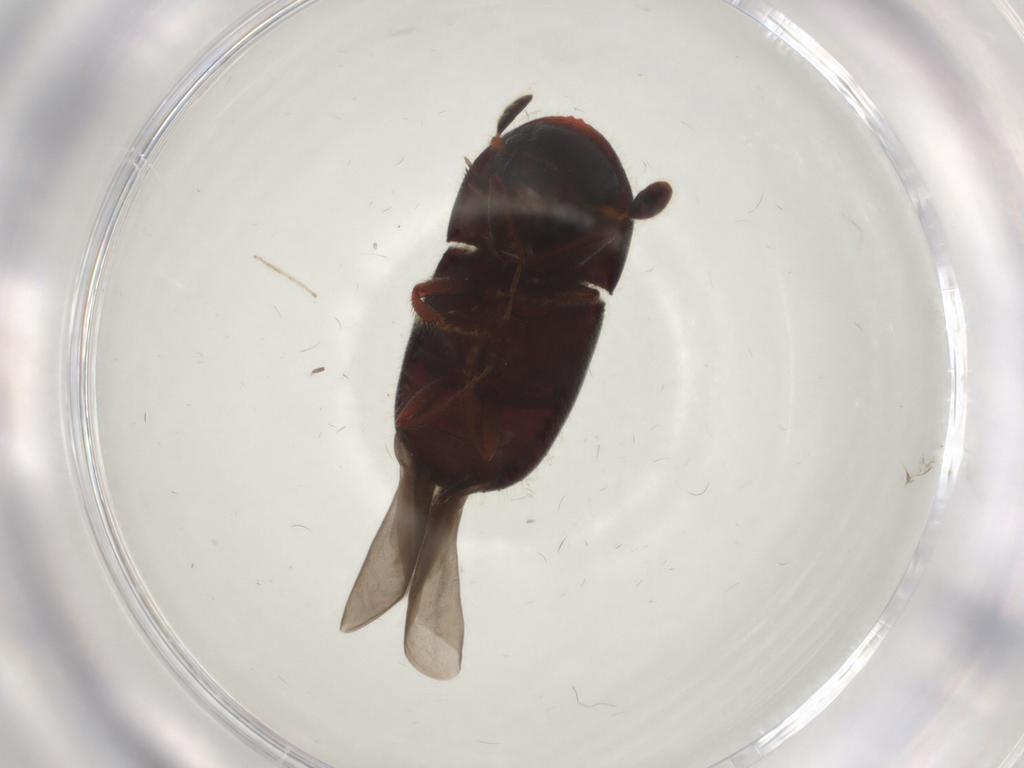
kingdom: Animalia
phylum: Arthropoda
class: Insecta
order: Coleoptera
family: Curculionidae
